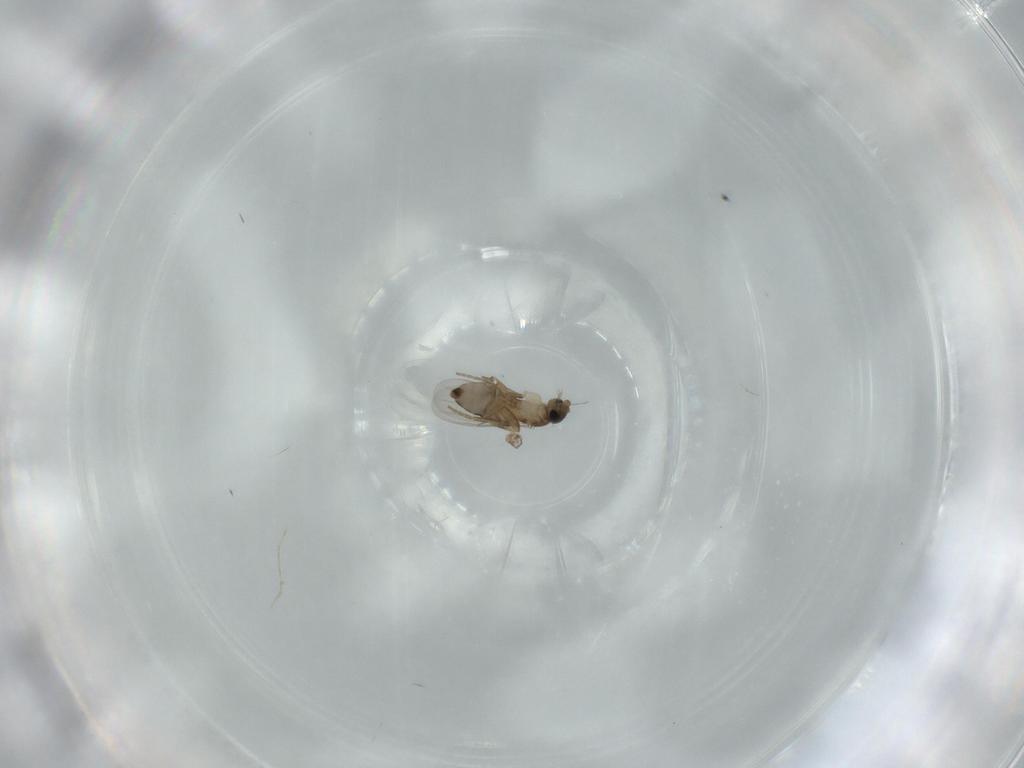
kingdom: Animalia
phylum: Arthropoda
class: Insecta
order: Diptera
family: Phoridae
